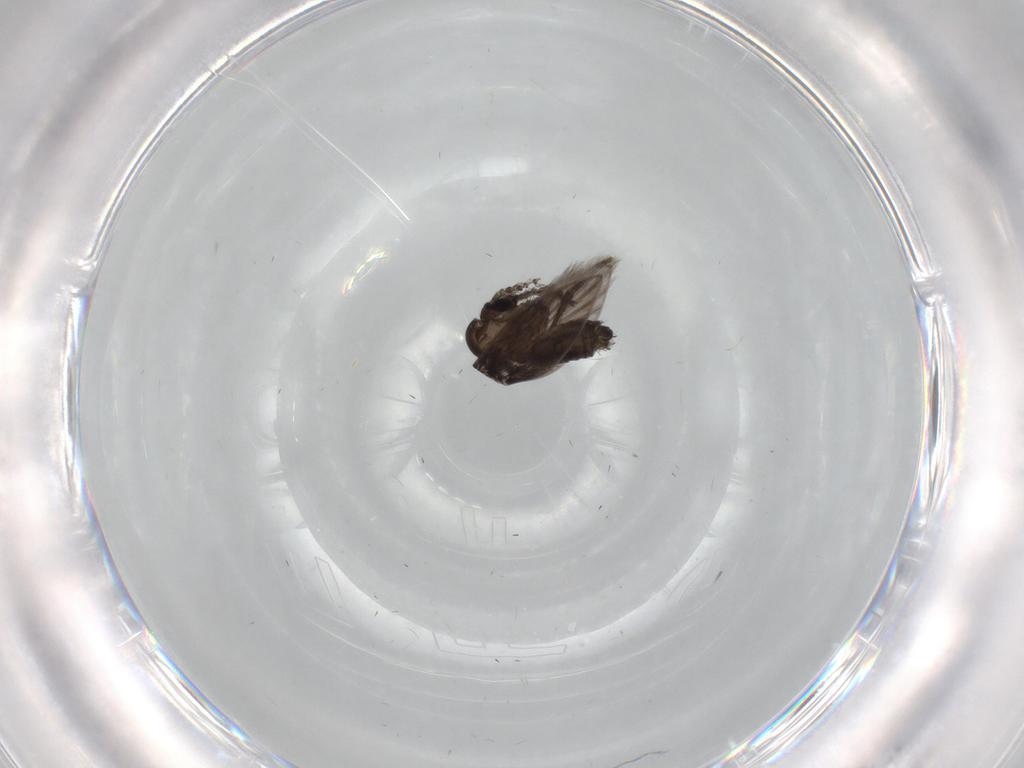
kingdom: Animalia
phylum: Arthropoda
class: Insecta
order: Diptera
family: Psychodidae
